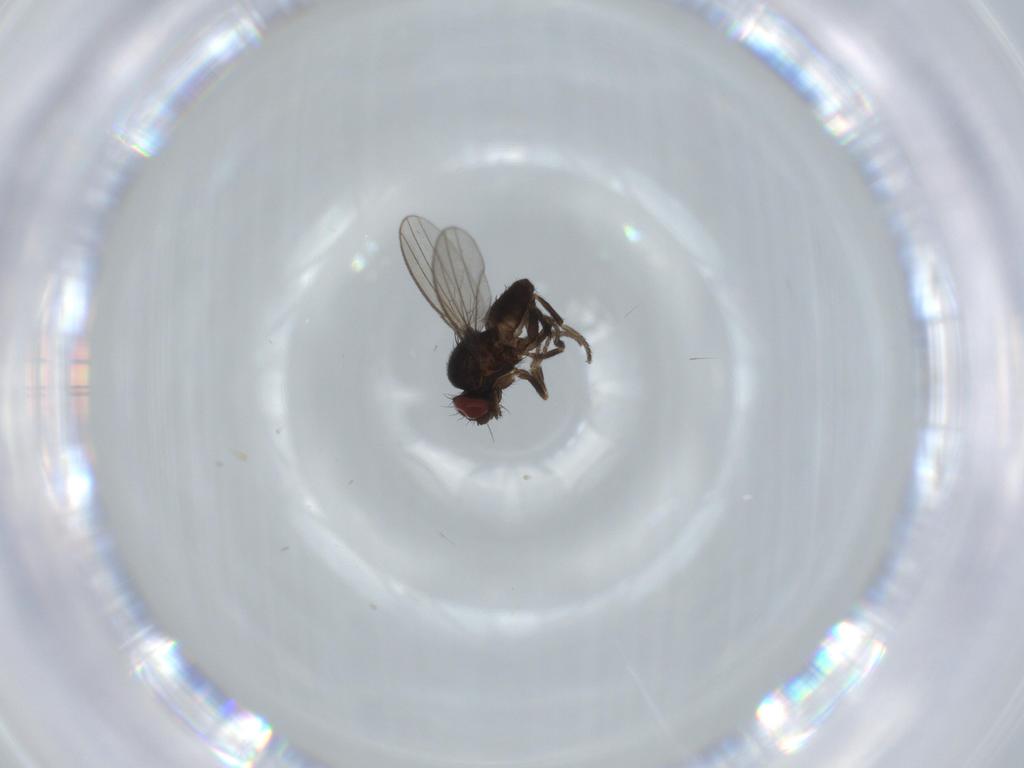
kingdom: Animalia
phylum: Arthropoda
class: Insecta
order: Diptera
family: Milichiidae
